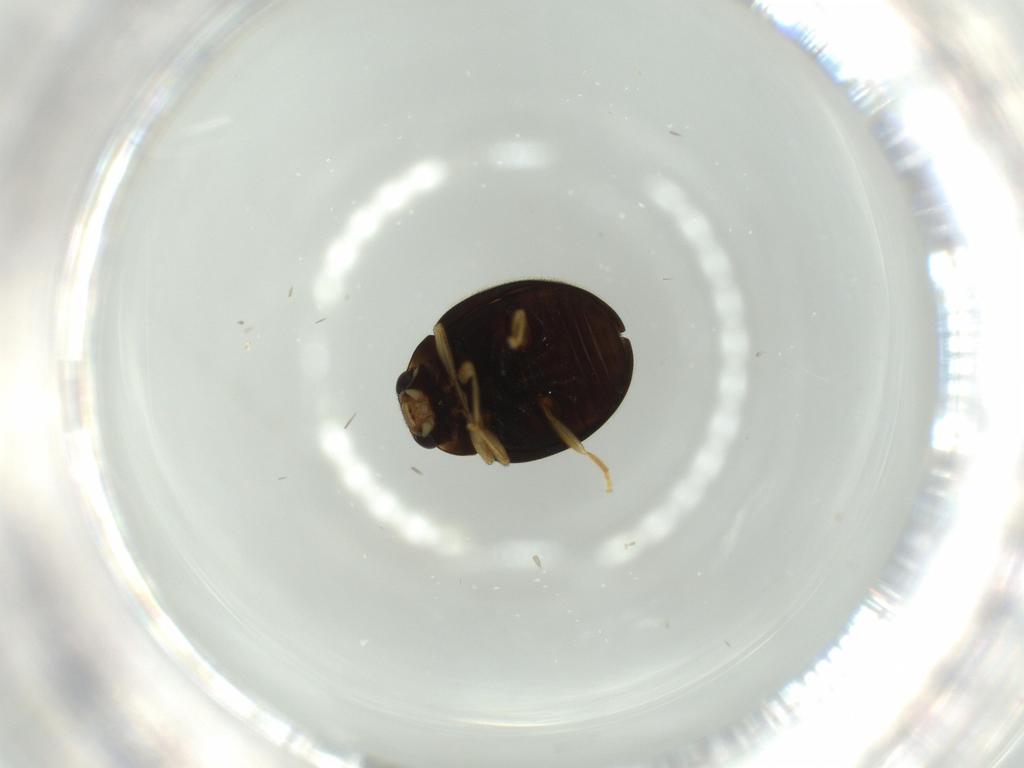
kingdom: Animalia
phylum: Arthropoda
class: Insecta
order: Coleoptera
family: Coccinellidae
